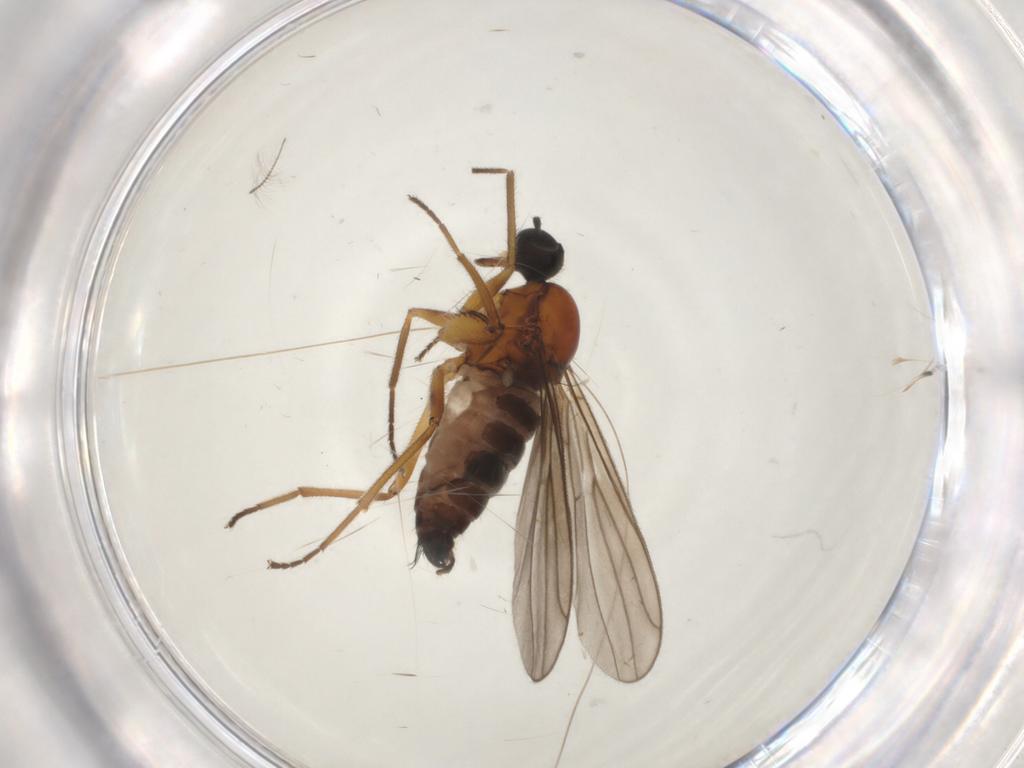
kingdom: Animalia
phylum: Arthropoda
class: Insecta
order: Diptera
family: Hybotidae
